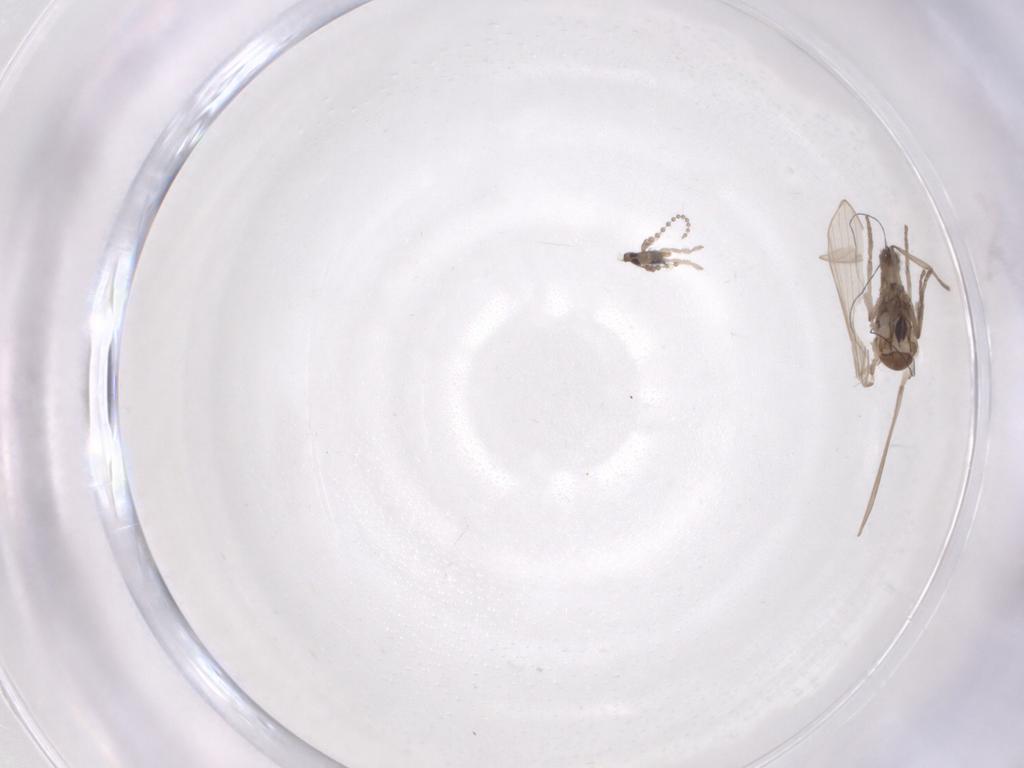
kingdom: Animalia
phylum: Arthropoda
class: Insecta
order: Diptera
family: Psychodidae
